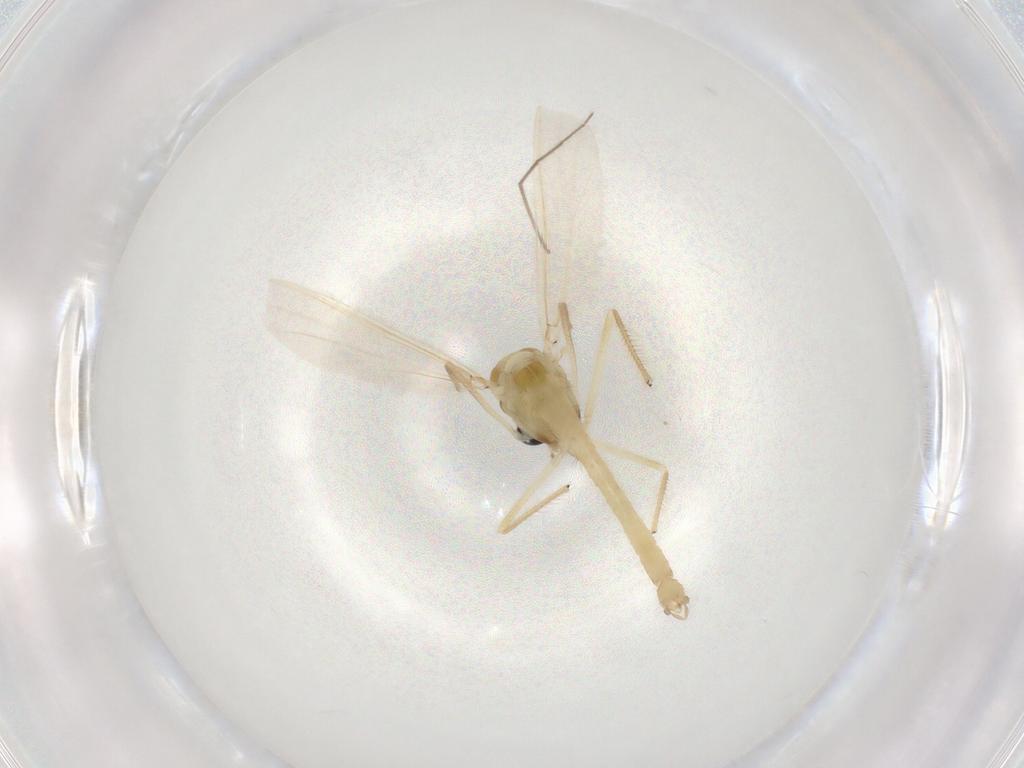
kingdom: Animalia
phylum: Arthropoda
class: Insecta
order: Diptera
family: Chironomidae
